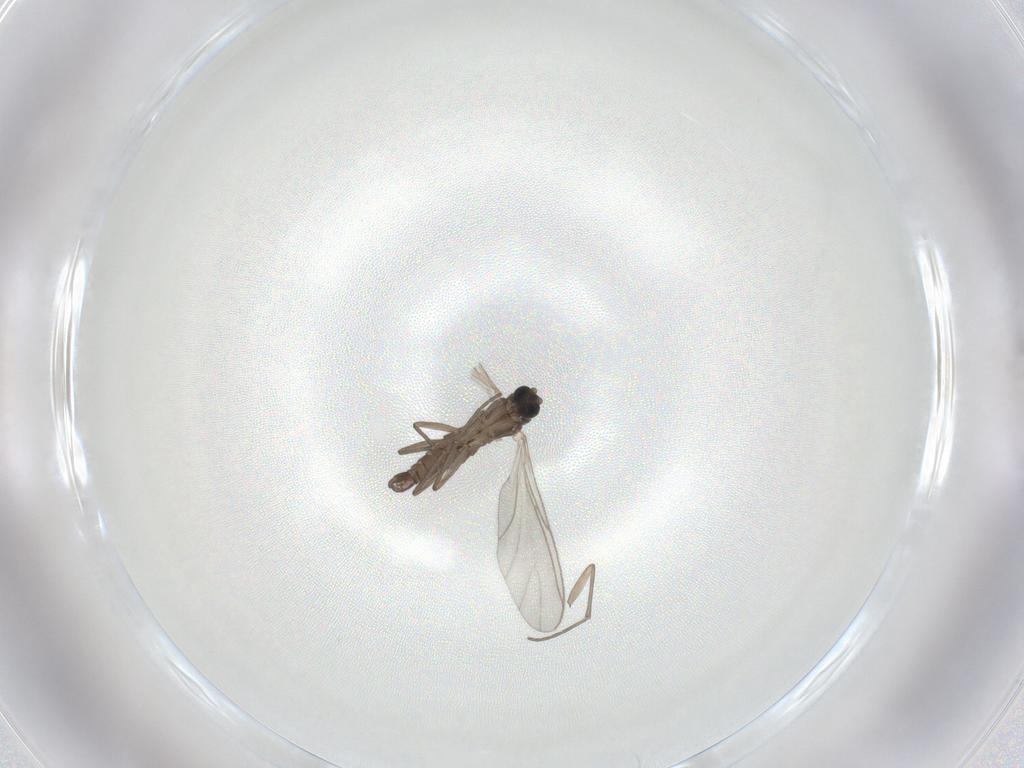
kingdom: Animalia
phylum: Arthropoda
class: Insecta
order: Diptera
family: Sciaridae
